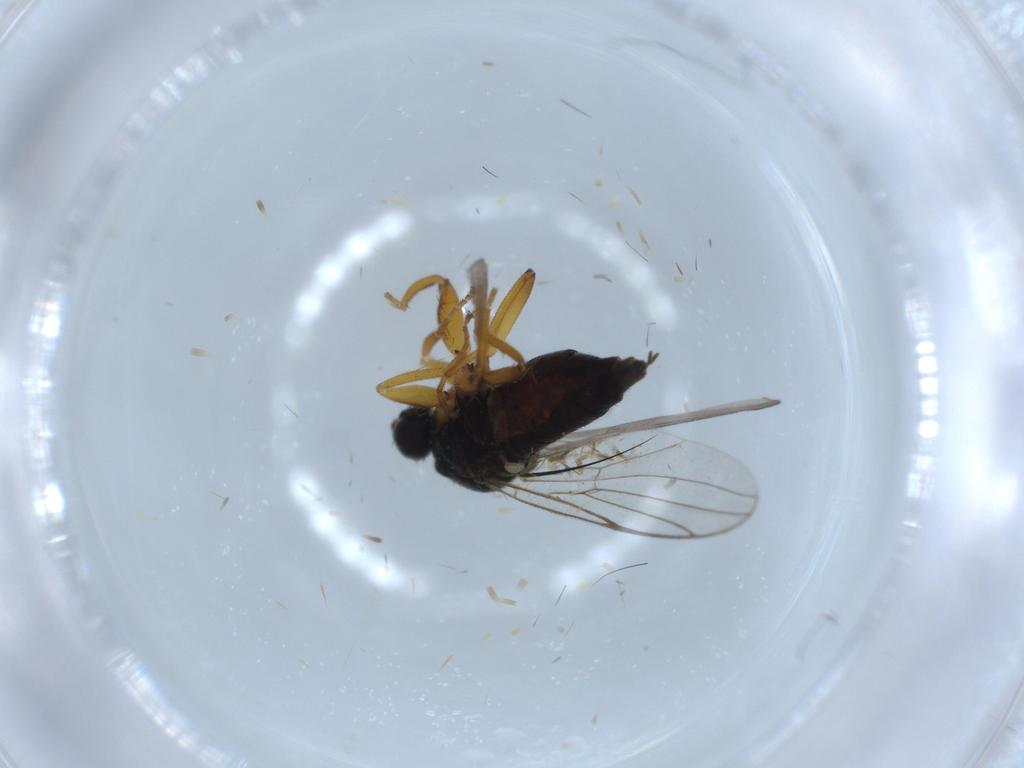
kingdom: Animalia
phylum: Arthropoda
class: Insecta
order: Diptera
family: Hybotidae
